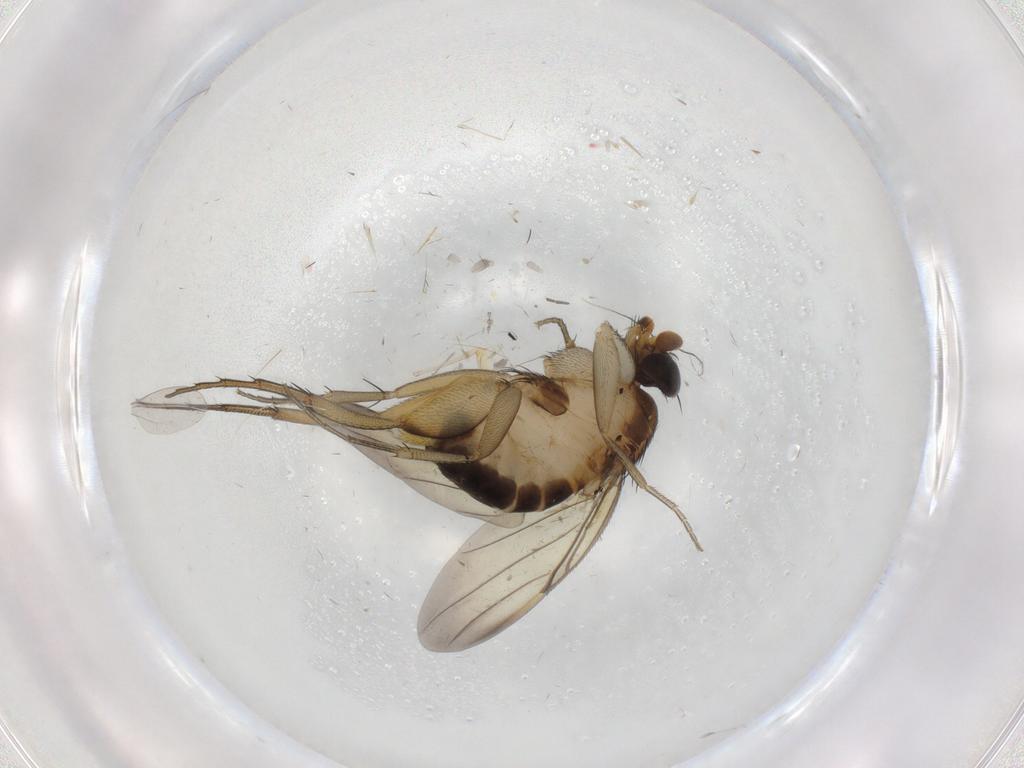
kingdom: Animalia
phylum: Arthropoda
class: Insecta
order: Diptera
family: Phoridae
